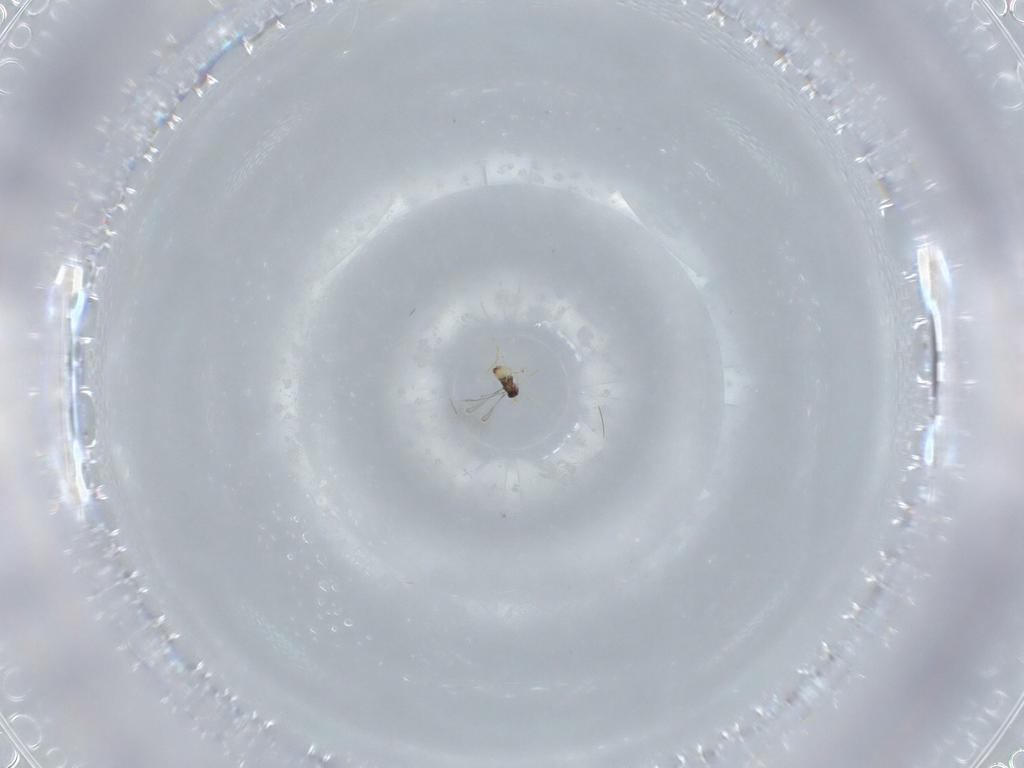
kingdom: Animalia
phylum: Arthropoda
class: Insecta
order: Hymenoptera
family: Mymaridae
